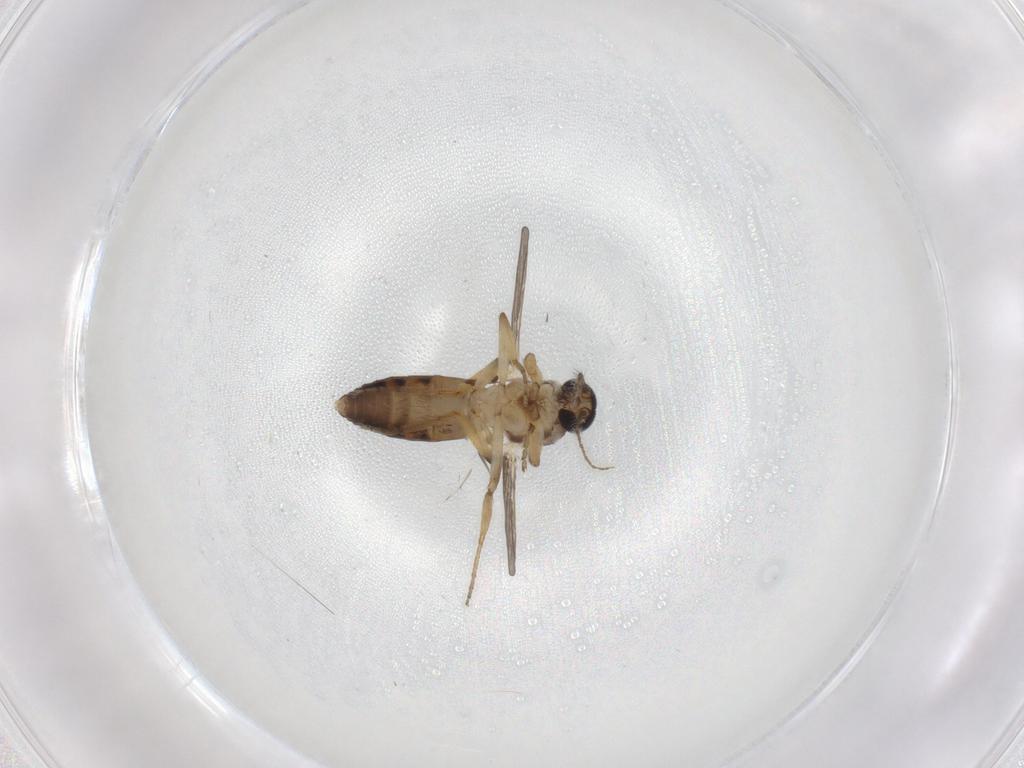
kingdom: Animalia
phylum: Arthropoda
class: Insecta
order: Diptera
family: Ceratopogonidae
